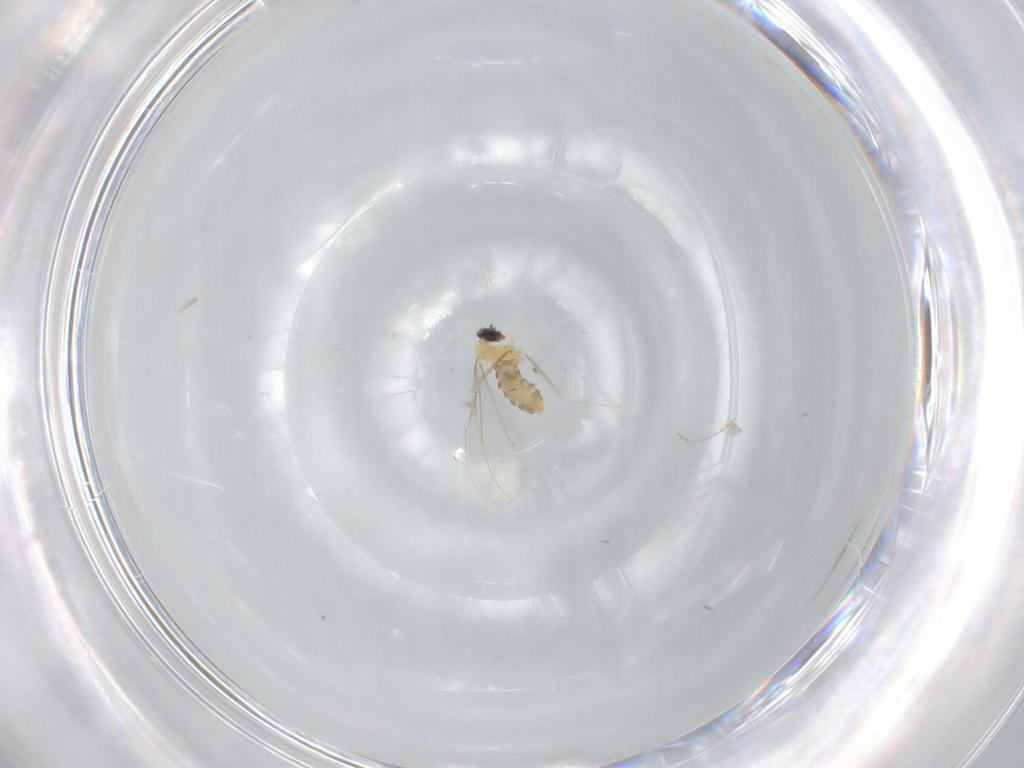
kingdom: Animalia
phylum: Arthropoda
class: Insecta
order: Diptera
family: Cecidomyiidae
